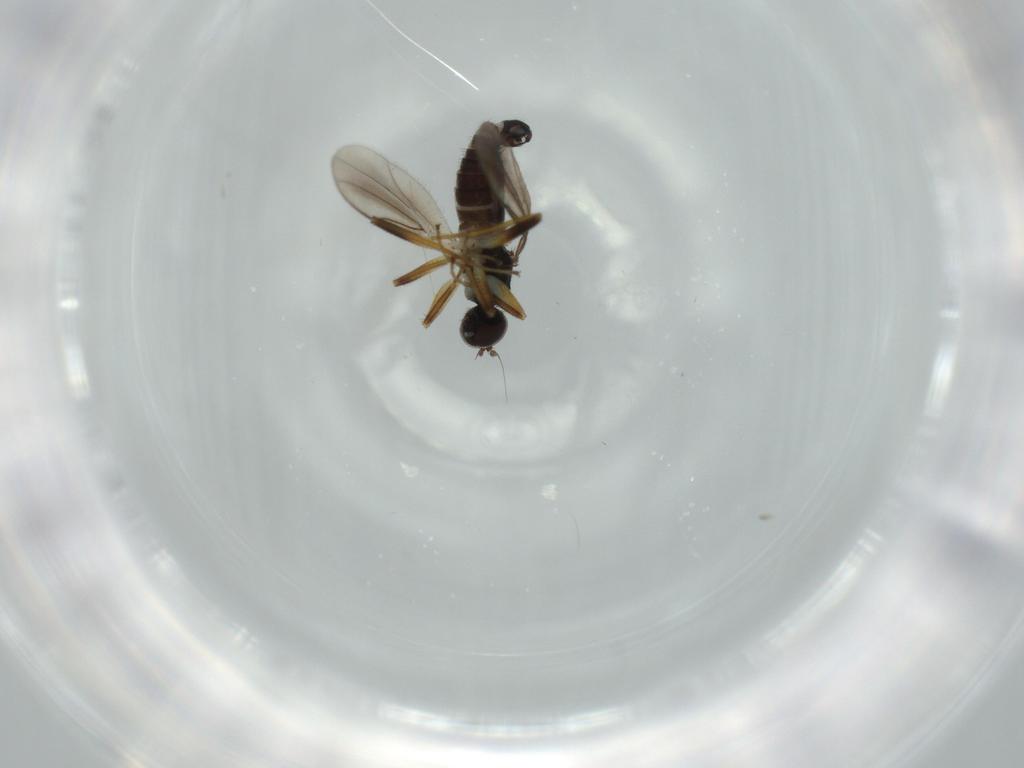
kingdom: Animalia
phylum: Arthropoda
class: Insecta
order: Diptera
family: Hybotidae
